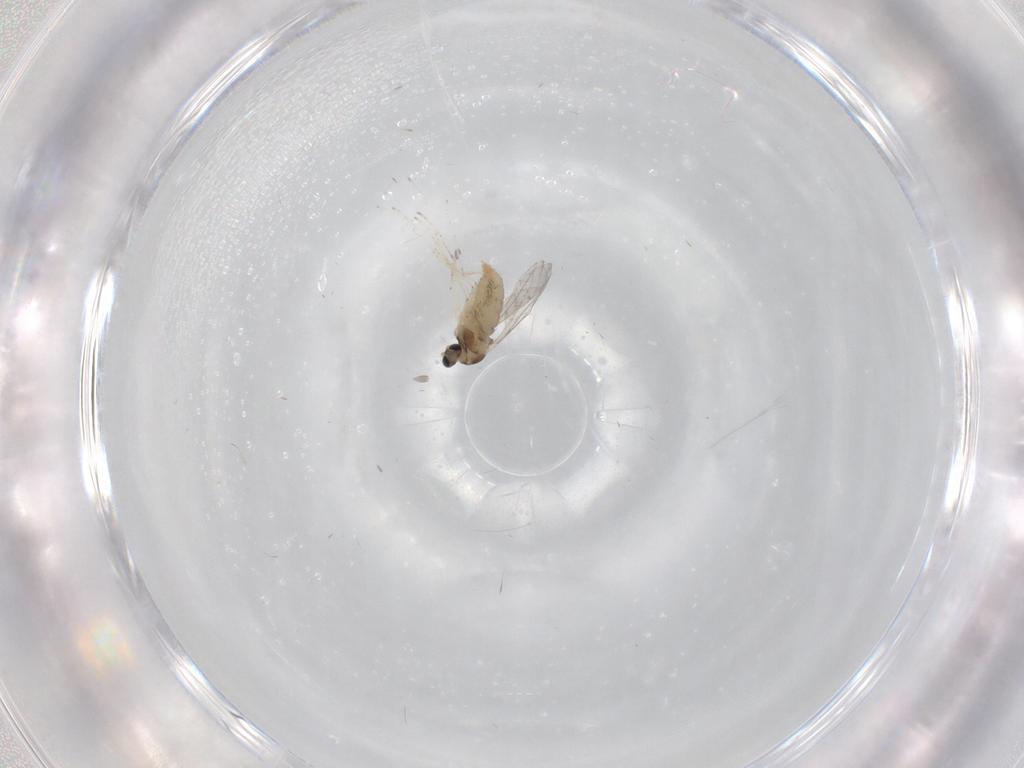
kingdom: Animalia
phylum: Arthropoda
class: Insecta
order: Diptera
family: Cecidomyiidae
